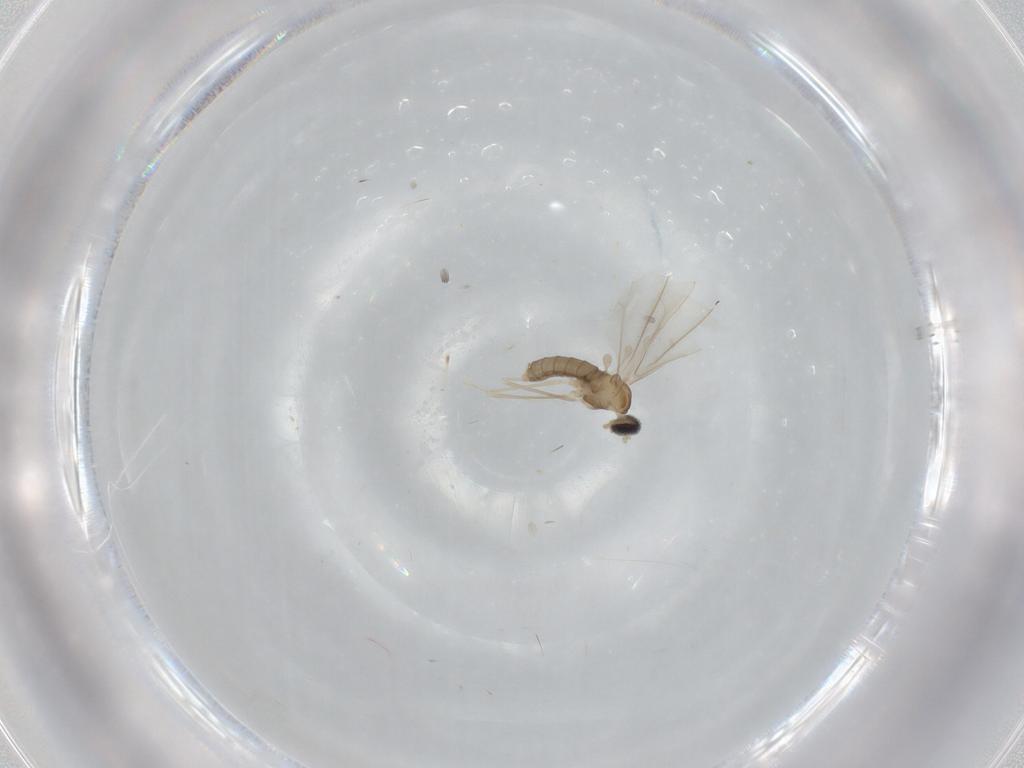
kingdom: Animalia
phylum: Arthropoda
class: Insecta
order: Diptera
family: Cecidomyiidae
